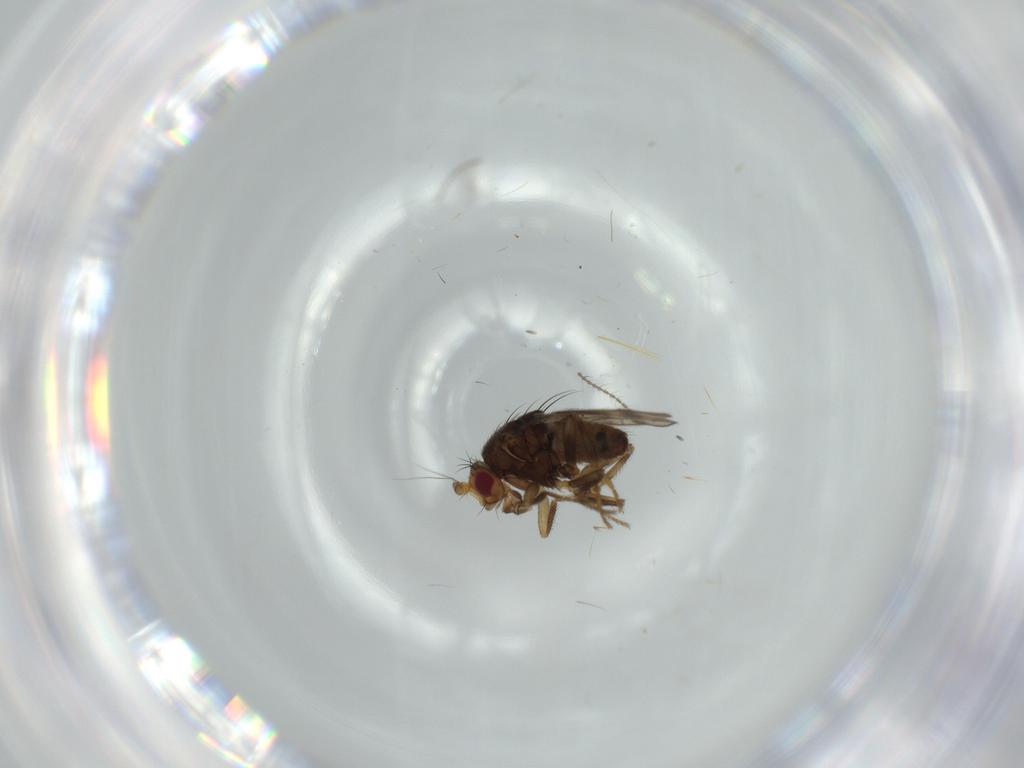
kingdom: Animalia
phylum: Arthropoda
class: Insecta
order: Diptera
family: Sphaeroceridae
